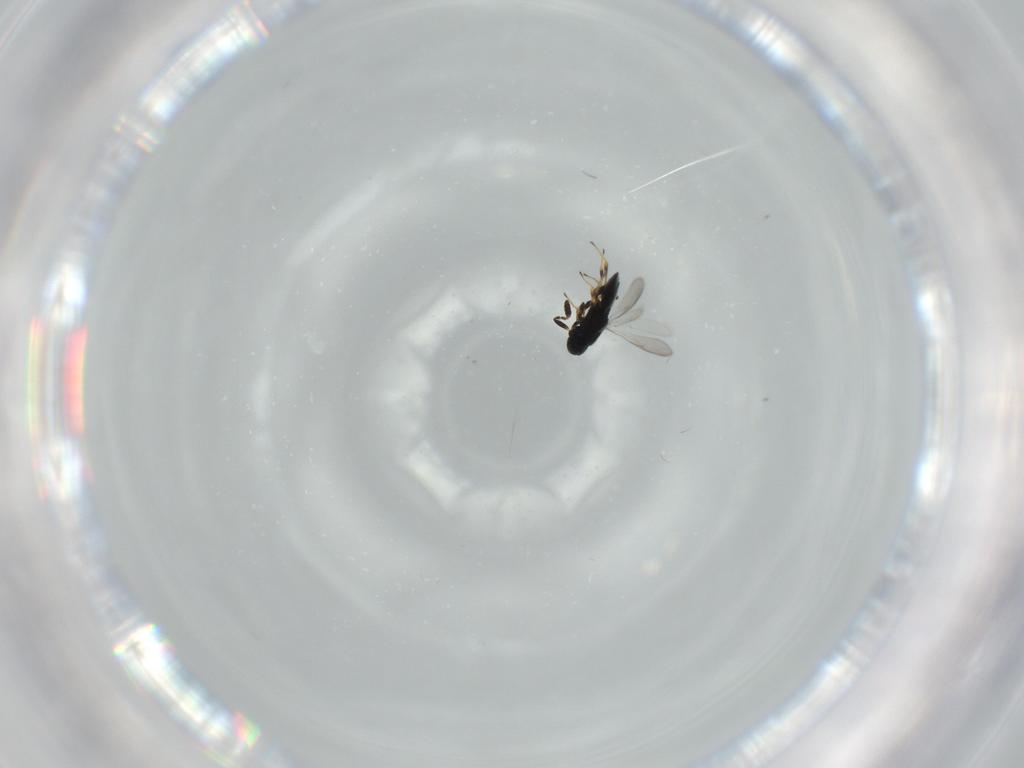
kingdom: Animalia
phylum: Arthropoda
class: Insecta
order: Hymenoptera
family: Scelionidae
